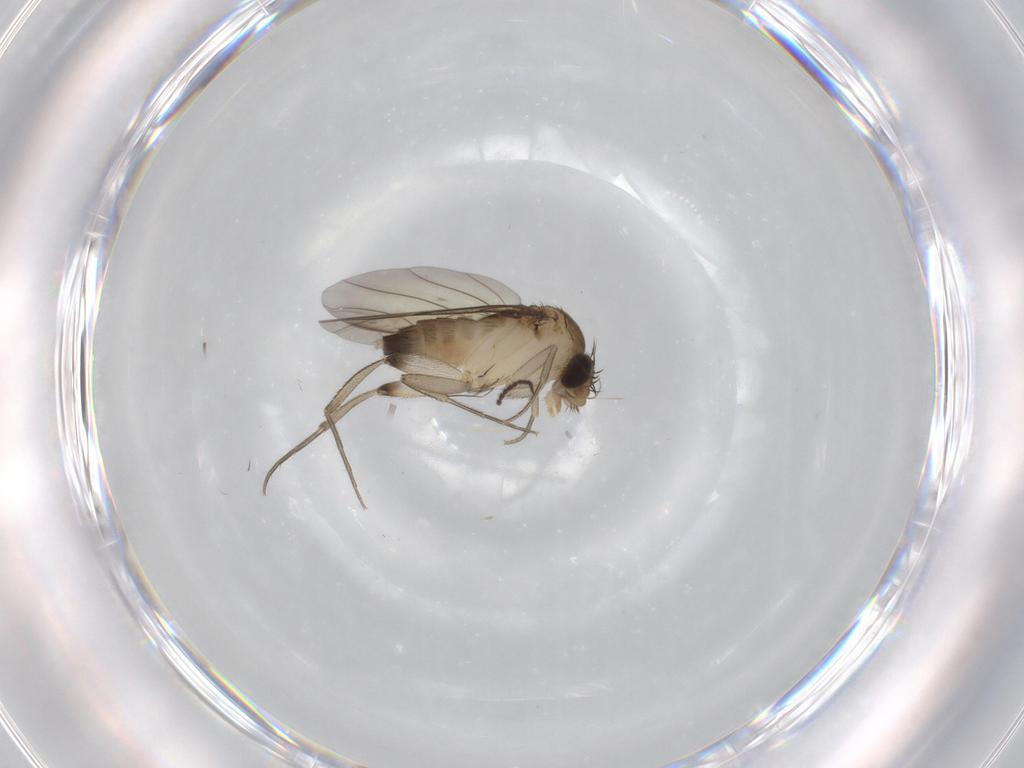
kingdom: Animalia
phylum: Arthropoda
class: Insecta
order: Diptera
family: Phoridae
